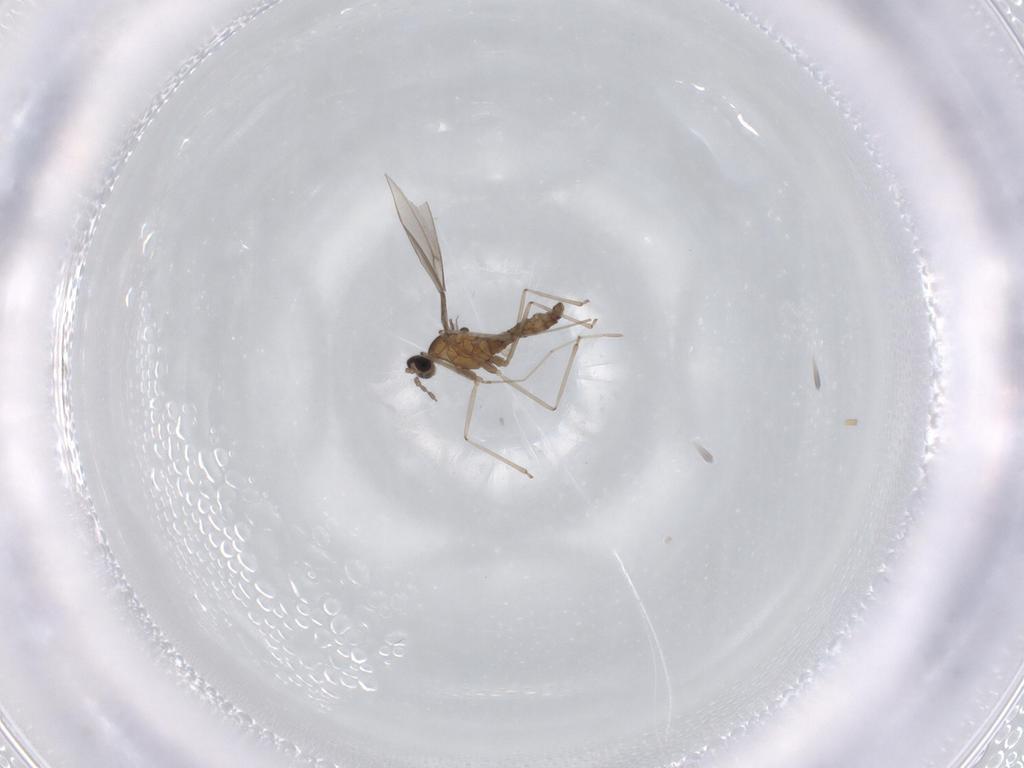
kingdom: Animalia
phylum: Arthropoda
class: Insecta
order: Diptera
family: Cecidomyiidae
